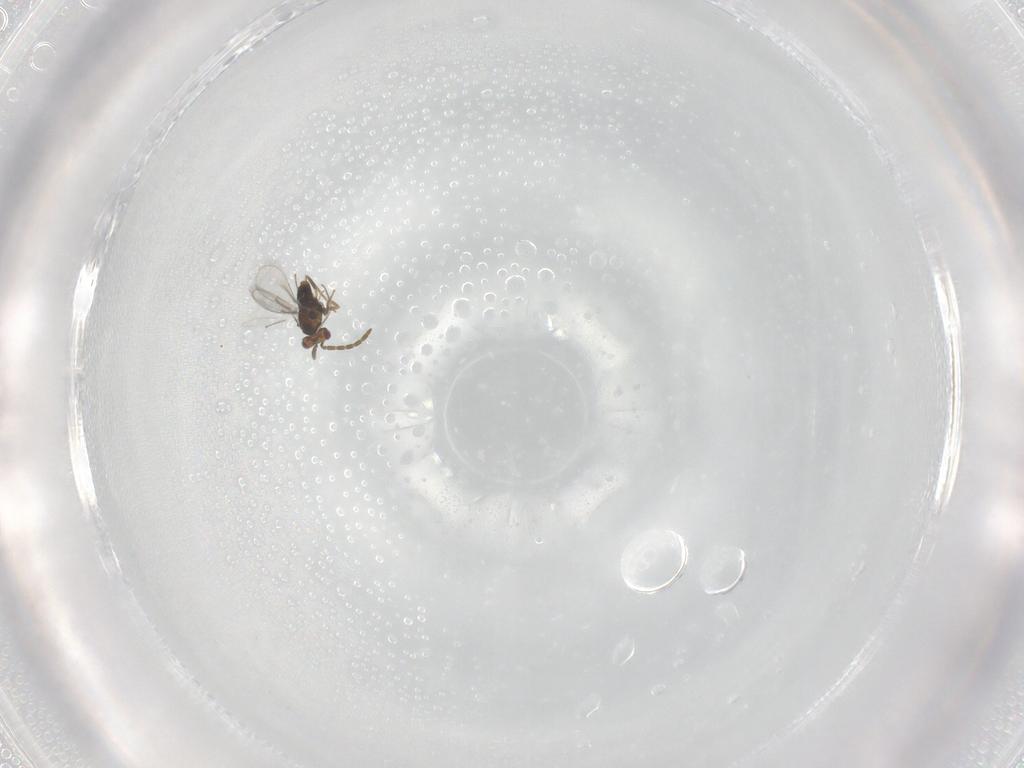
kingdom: Animalia
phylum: Arthropoda
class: Insecta
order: Hymenoptera
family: Aphelinidae
